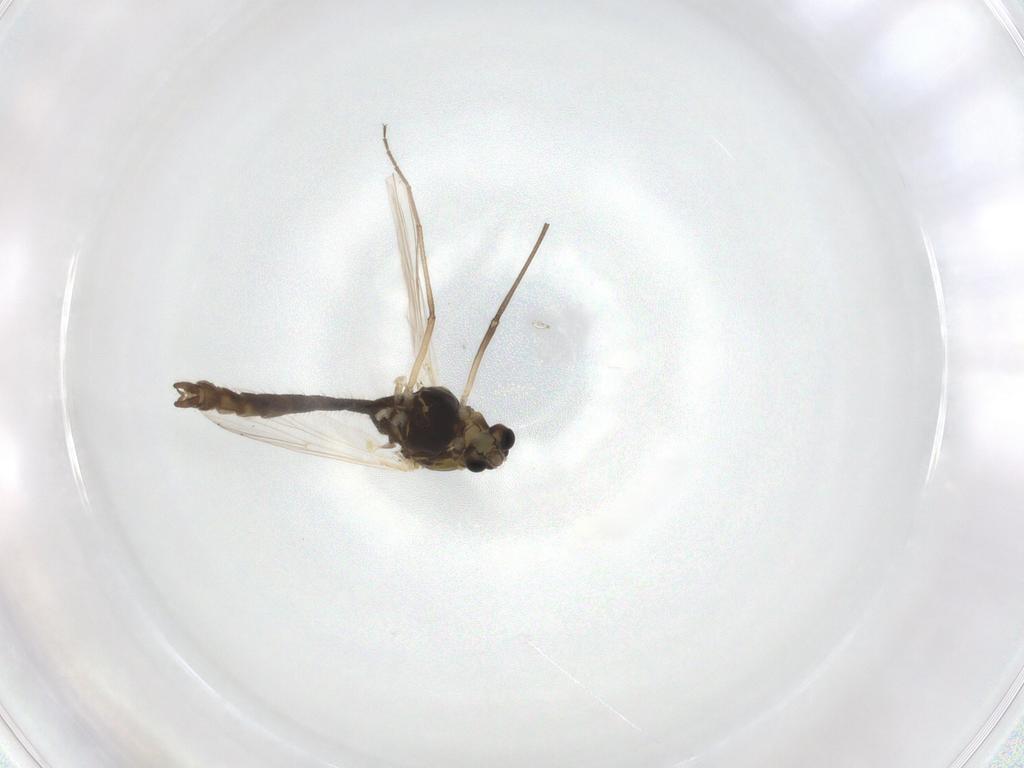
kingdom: Animalia
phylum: Arthropoda
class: Insecta
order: Diptera
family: Chironomidae
